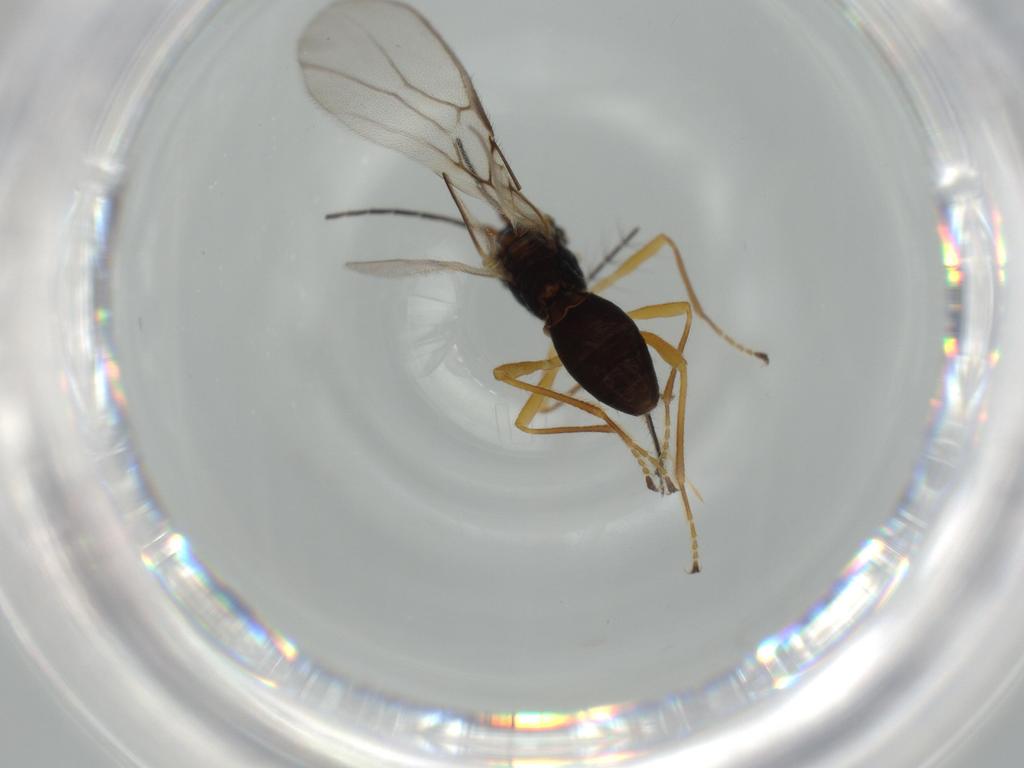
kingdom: Animalia
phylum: Arthropoda
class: Insecta
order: Hymenoptera
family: Braconidae
